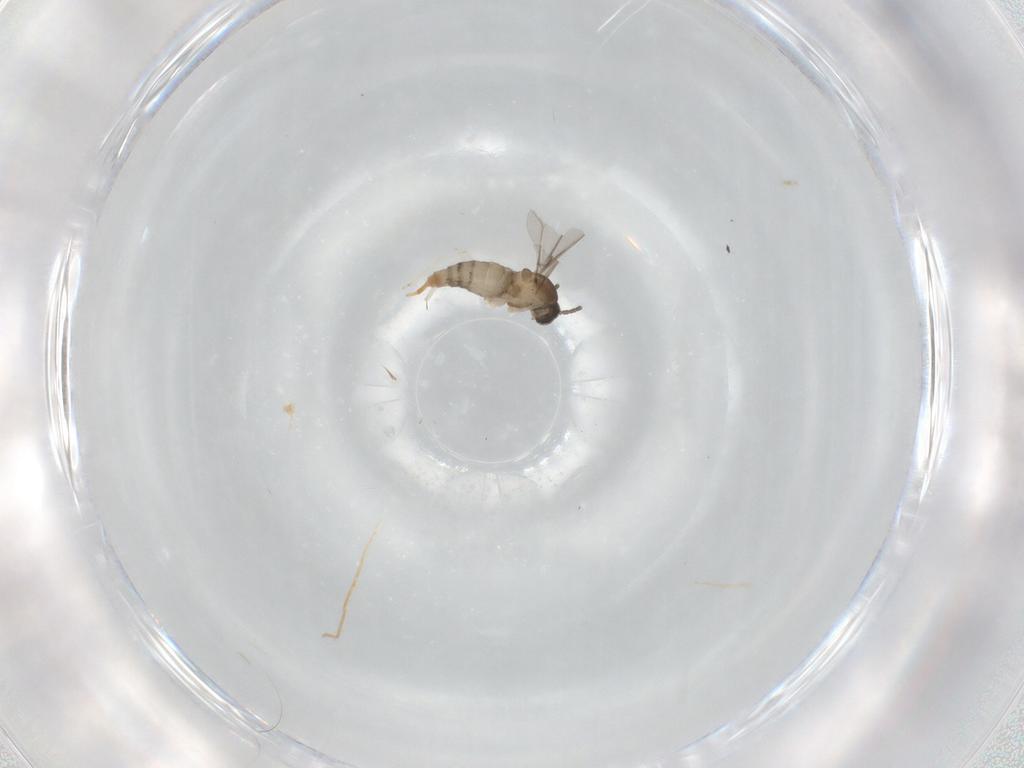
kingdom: Animalia
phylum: Arthropoda
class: Insecta
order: Diptera
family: Cecidomyiidae
